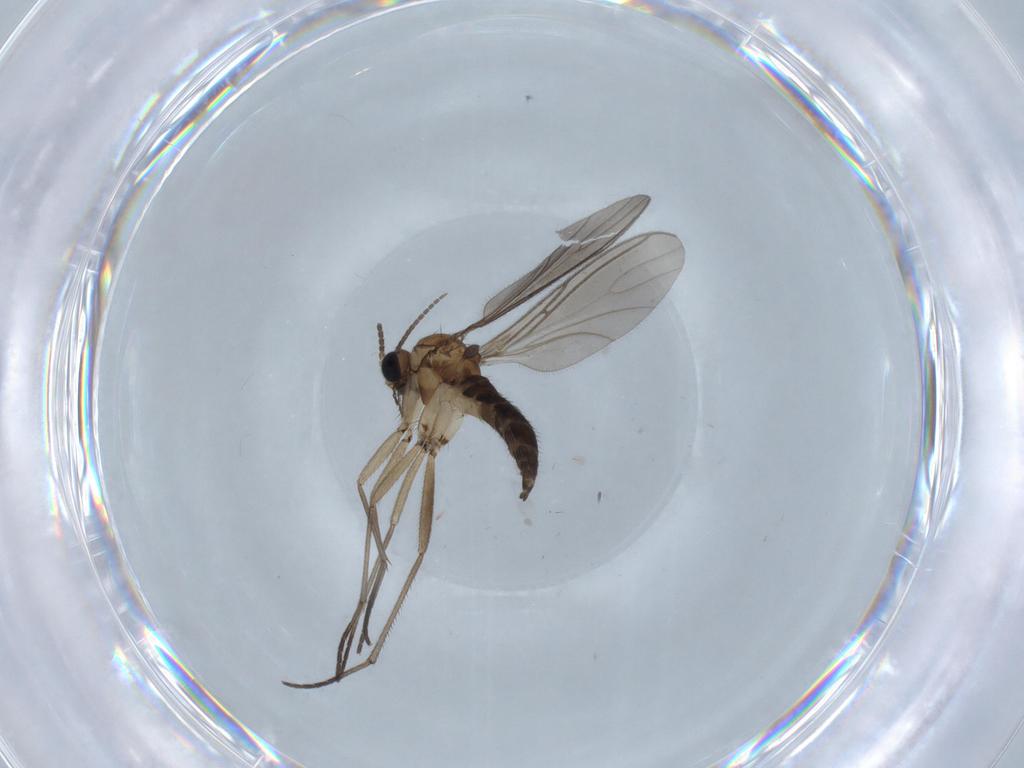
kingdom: Animalia
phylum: Arthropoda
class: Insecta
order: Diptera
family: Sciaridae
